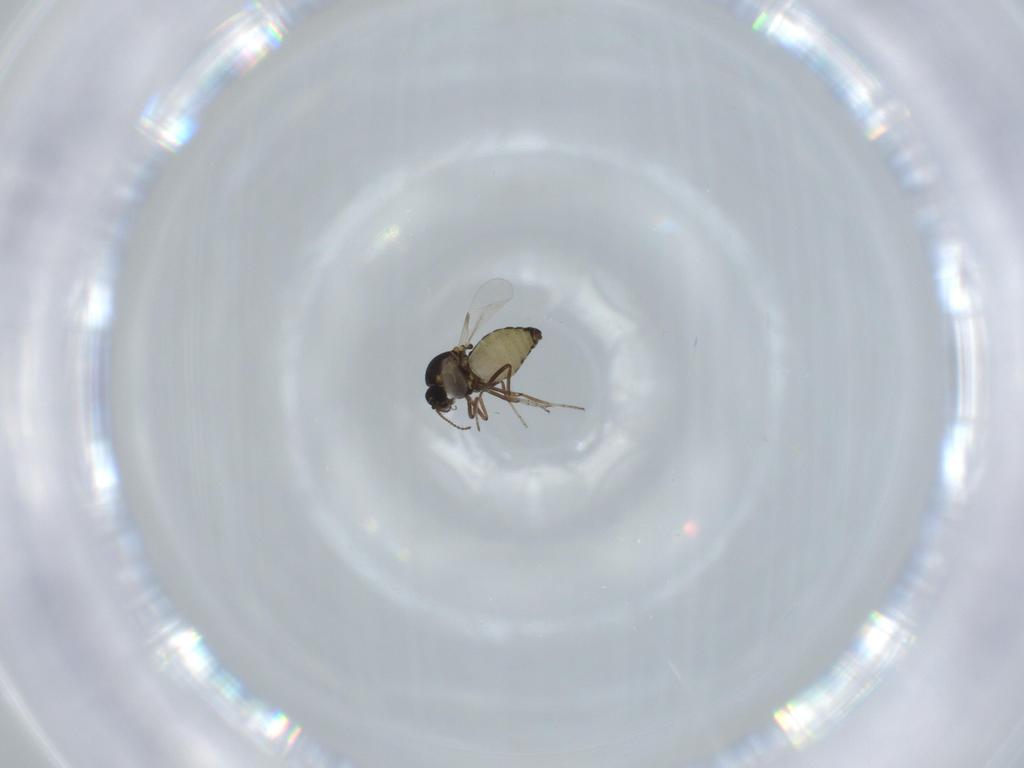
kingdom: Animalia
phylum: Arthropoda
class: Insecta
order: Diptera
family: Ceratopogonidae
